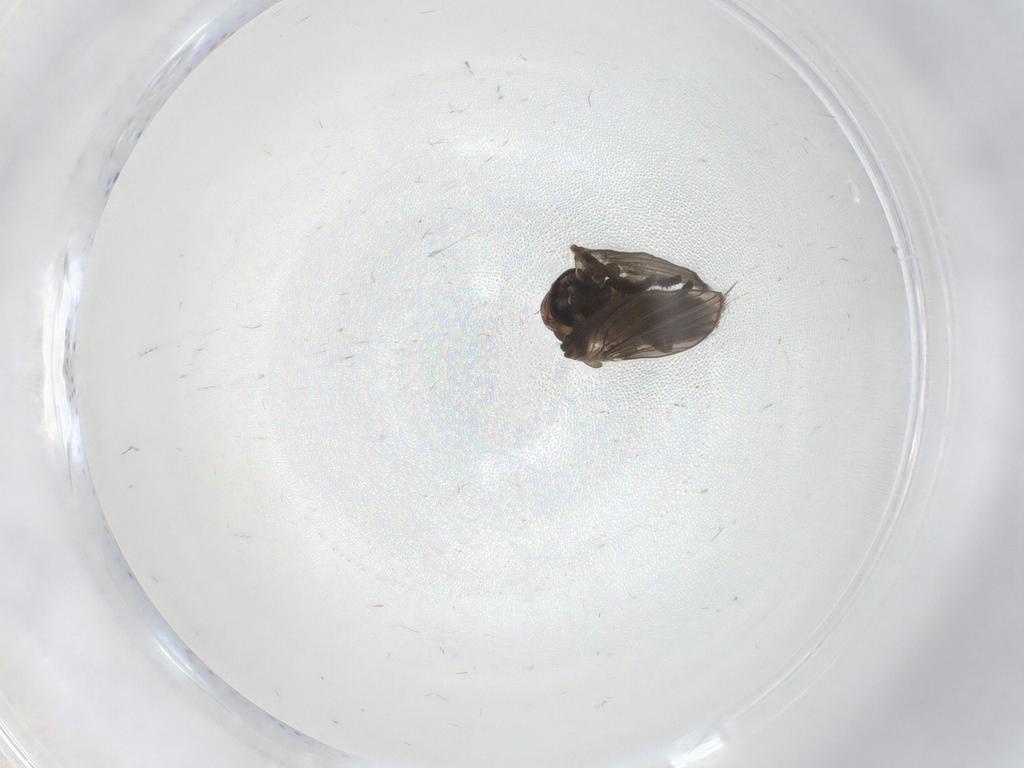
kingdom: Animalia
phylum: Arthropoda
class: Insecta
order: Diptera
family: Psychodidae
